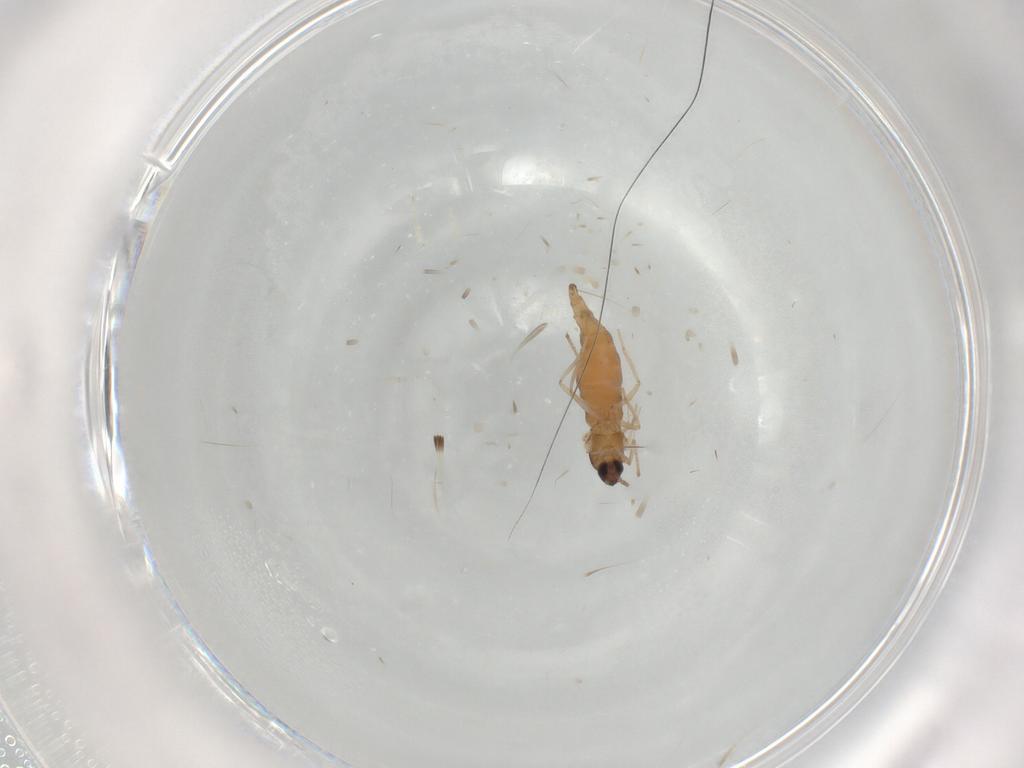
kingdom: Animalia
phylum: Arthropoda
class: Insecta
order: Diptera
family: Cecidomyiidae
